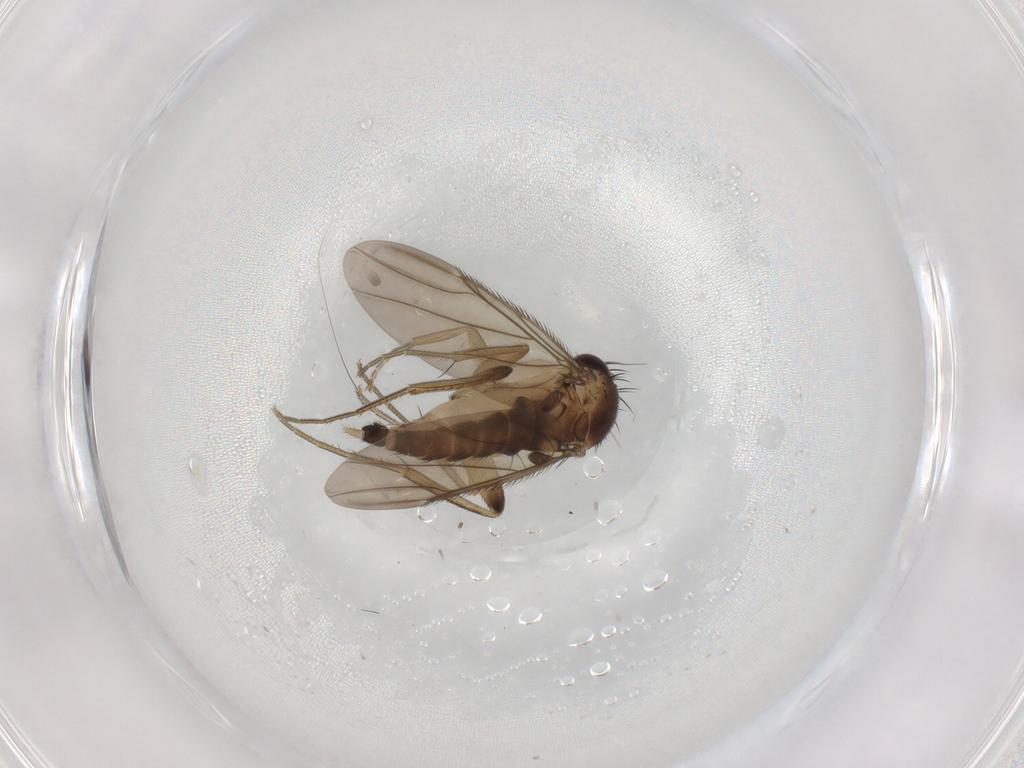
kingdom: Animalia
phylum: Arthropoda
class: Insecta
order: Diptera
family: Phoridae
